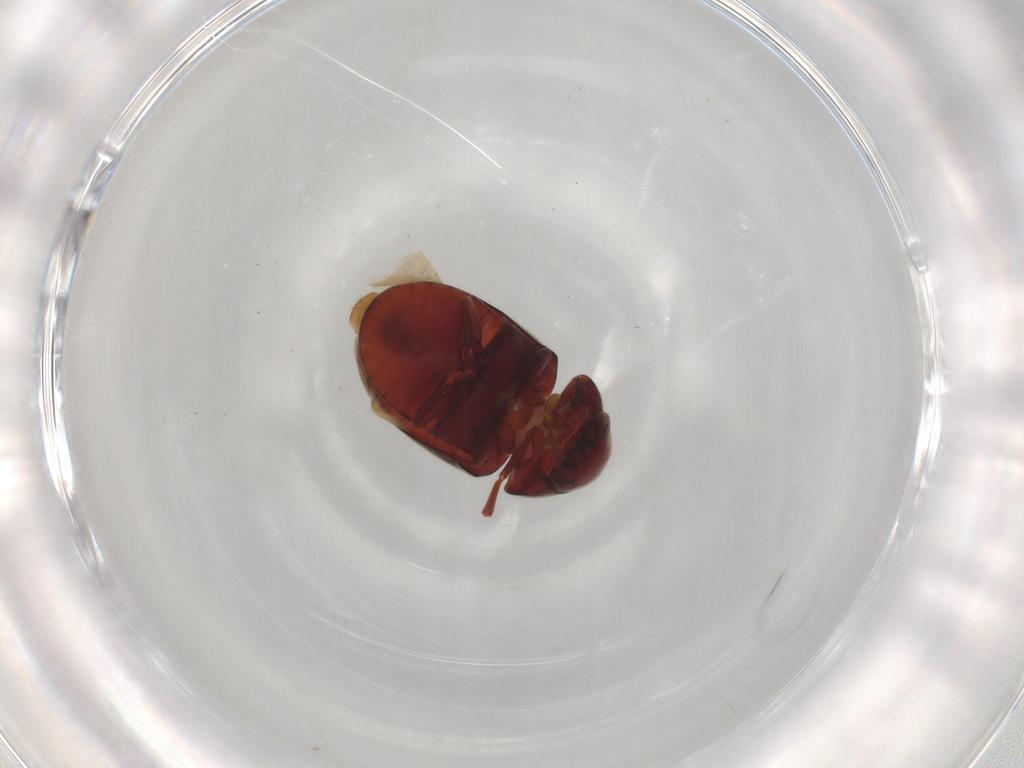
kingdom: Animalia
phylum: Arthropoda
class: Insecta
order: Coleoptera
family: Ptinidae
